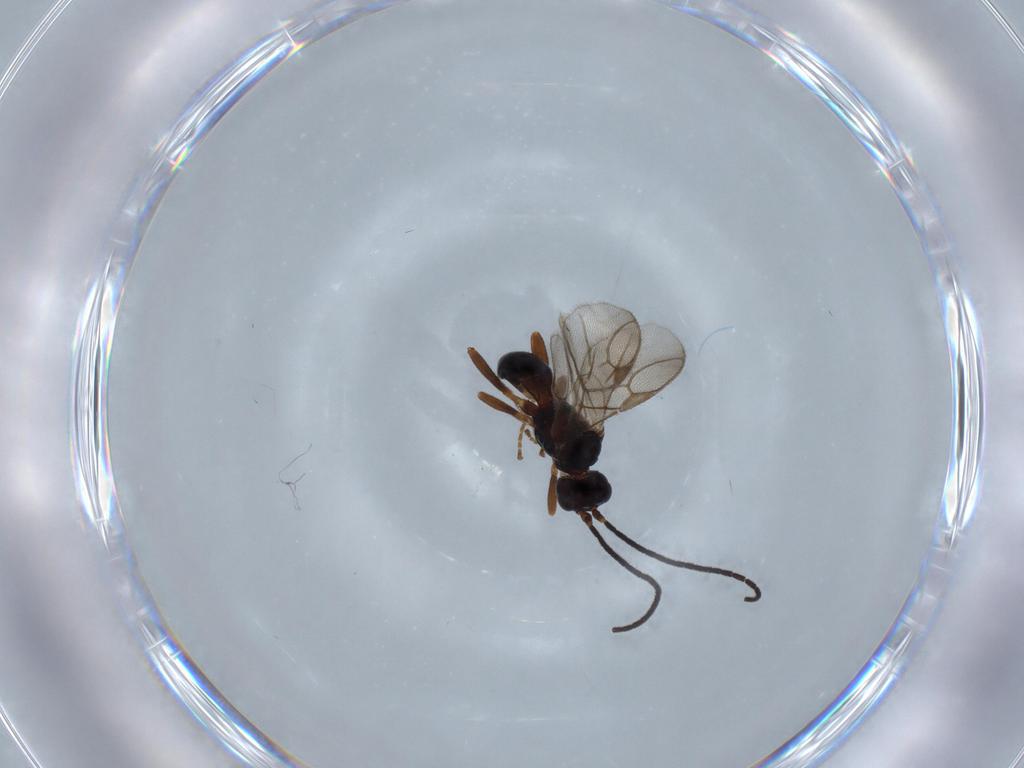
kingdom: Animalia
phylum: Arthropoda
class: Insecta
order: Hymenoptera
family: Braconidae
